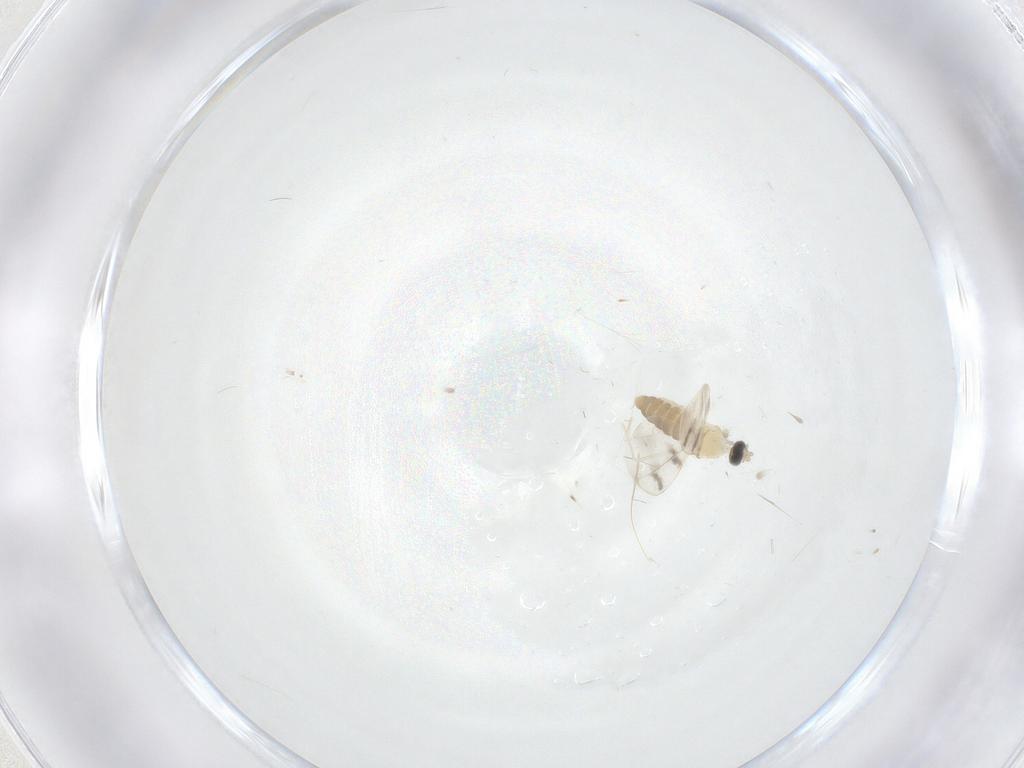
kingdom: Animalia
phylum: Arthropoda
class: Insecta
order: Diptera
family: Cecidomyiidae
